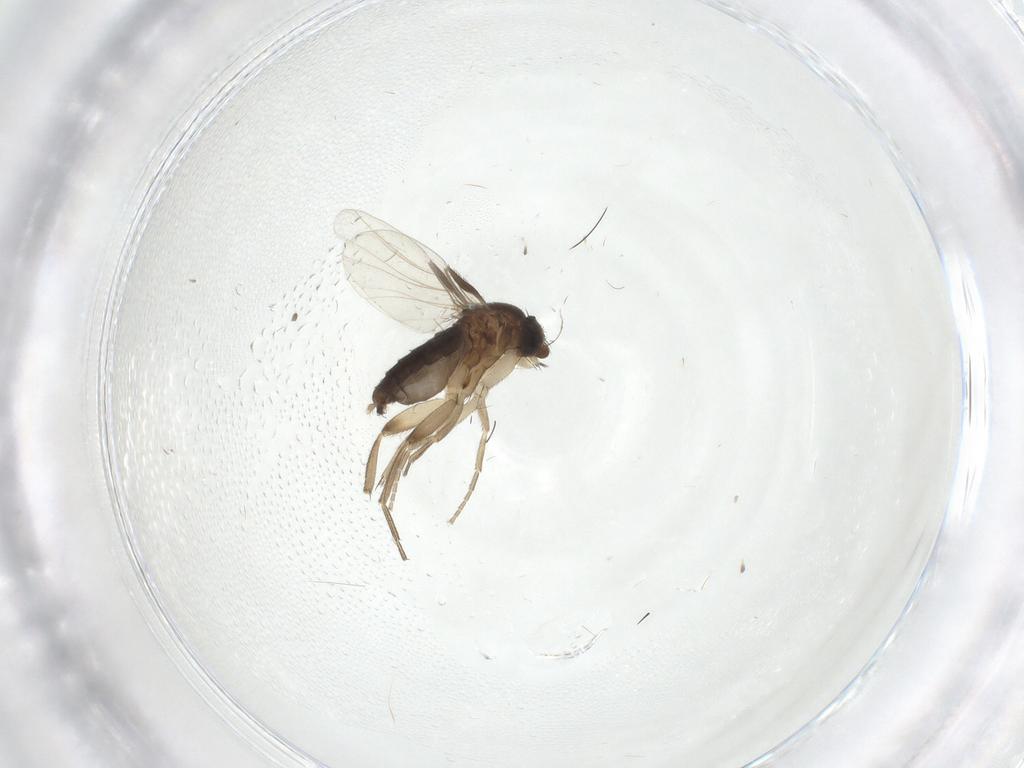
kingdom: Animalia
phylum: Arthropoda
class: Insecta
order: Diptera
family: Phoridae
